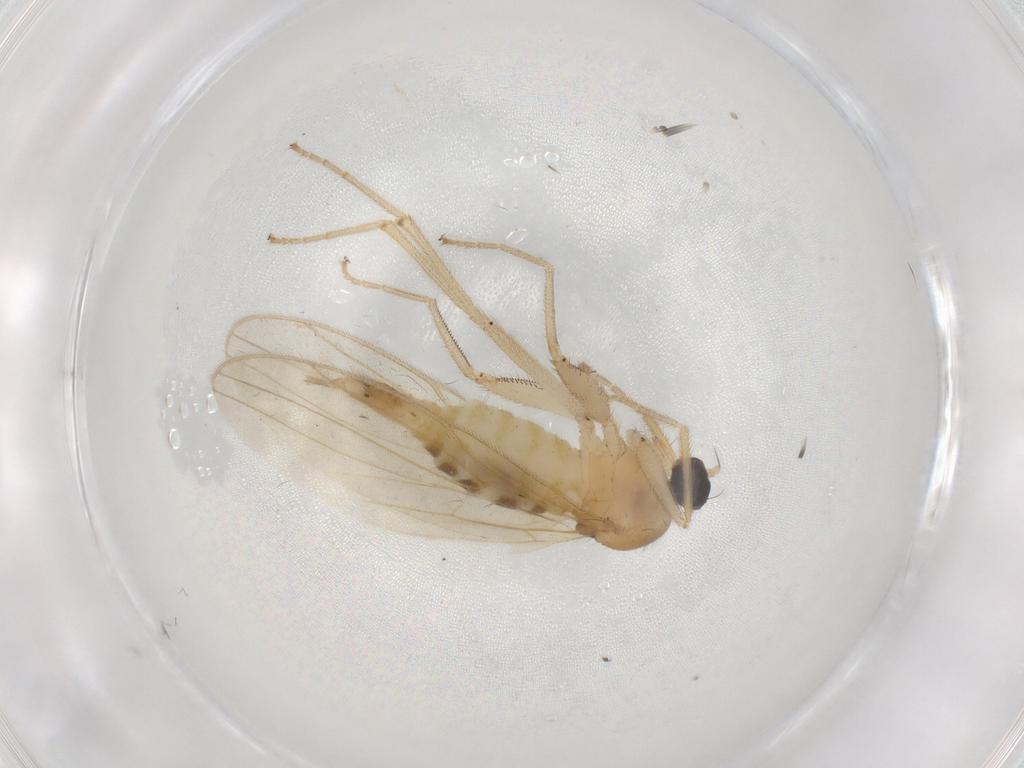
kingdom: Animalia
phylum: Arthropoda
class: Insecta
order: Diptera
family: Hybotidae
